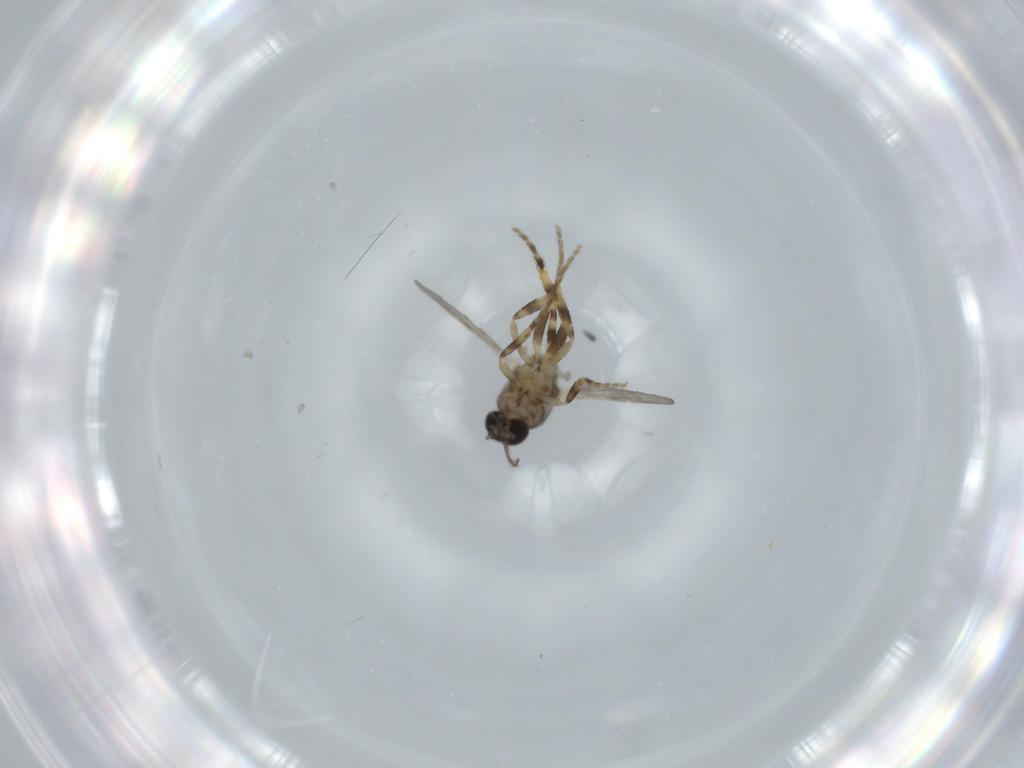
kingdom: Animalia
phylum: Arthropoda
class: Insecta
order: Diptera
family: Ceratopogonidae
